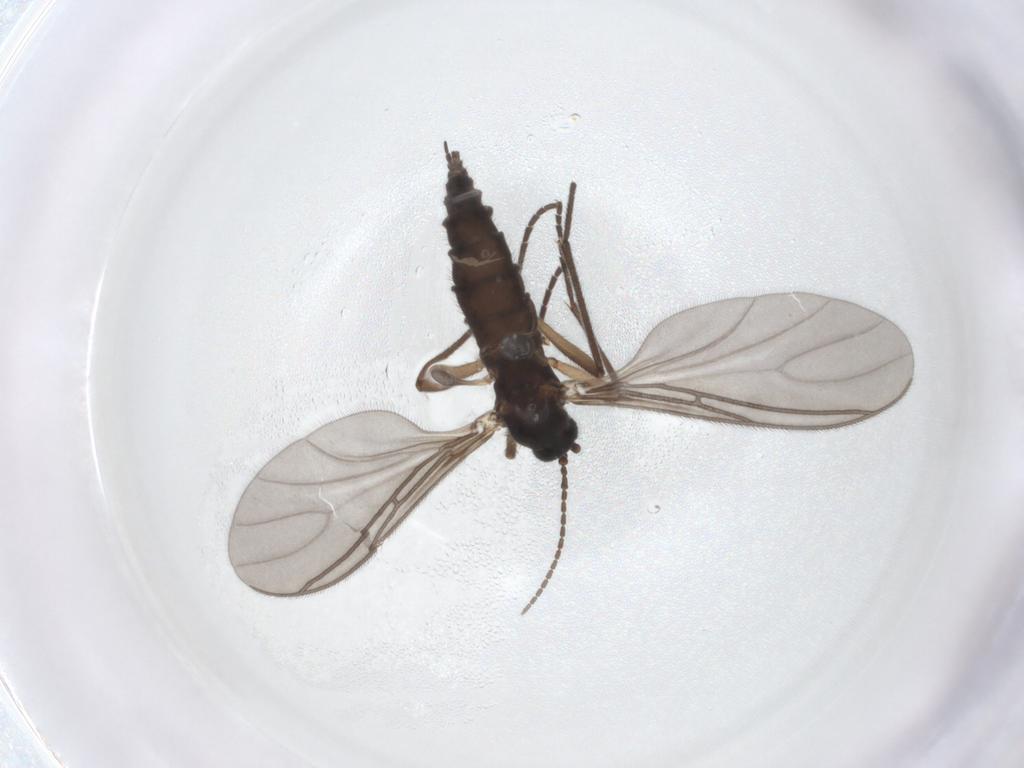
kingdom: Animalia
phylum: Arthropoda
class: Insecta
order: Diptera
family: Sciaridae
